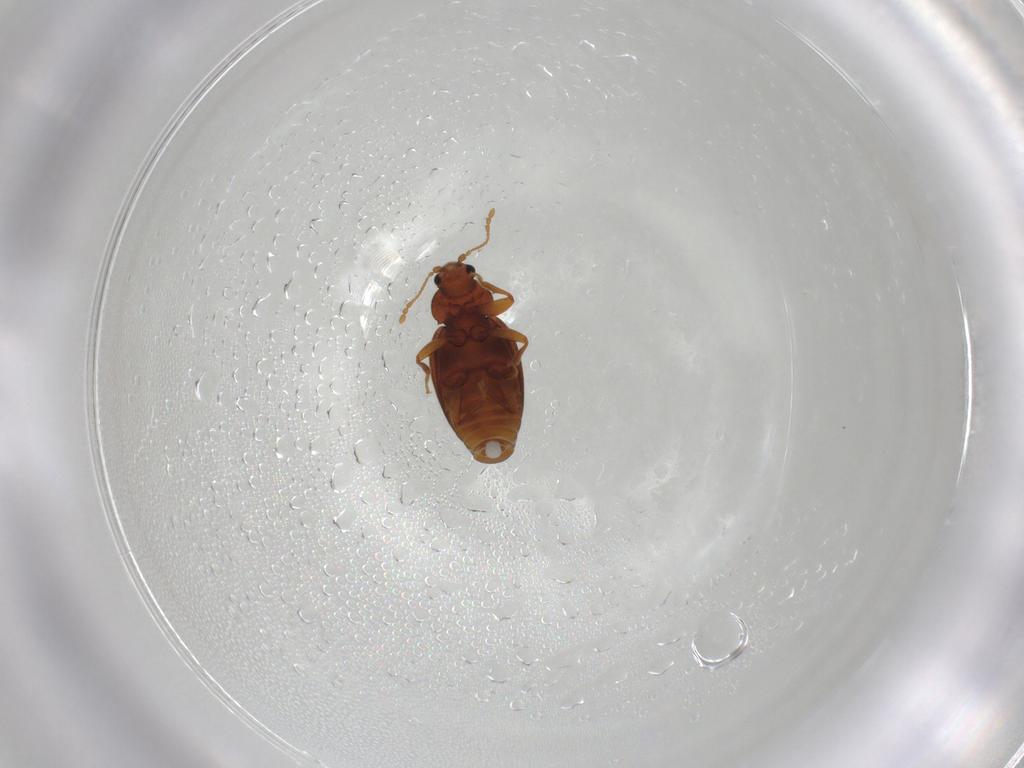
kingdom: Animalia
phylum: Arthropoda
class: Insecta
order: Coleoptera
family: Latridiidae
